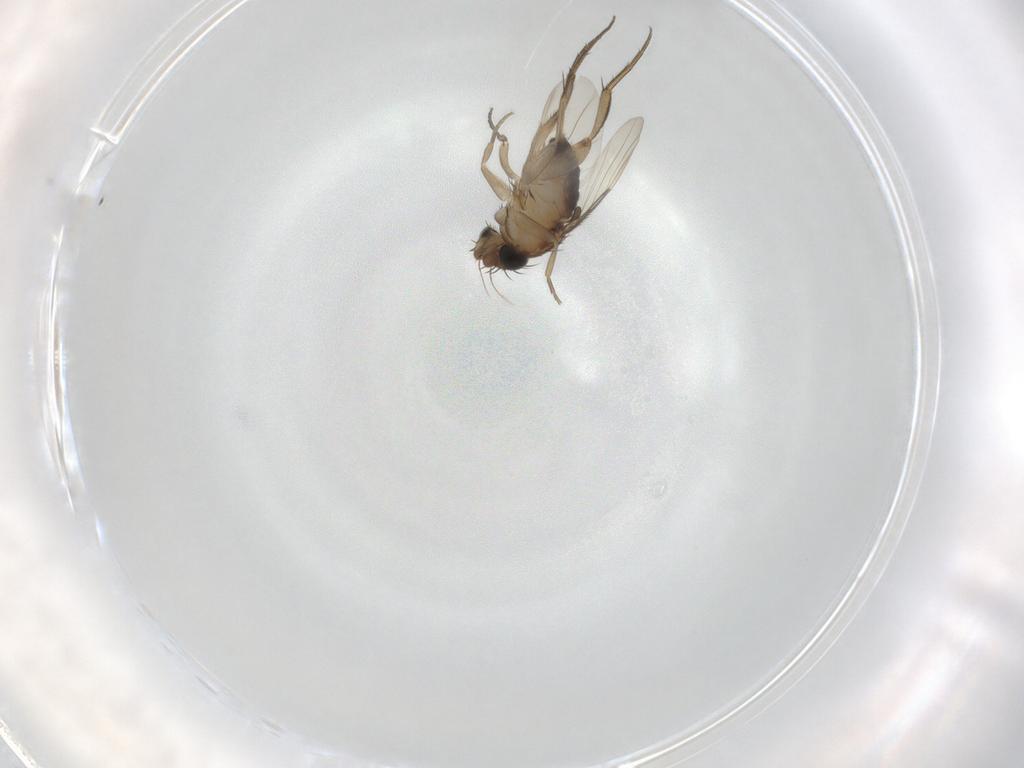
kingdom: Animalia
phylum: Arthropoda
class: Insecta
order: Diptera
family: Phoridae
